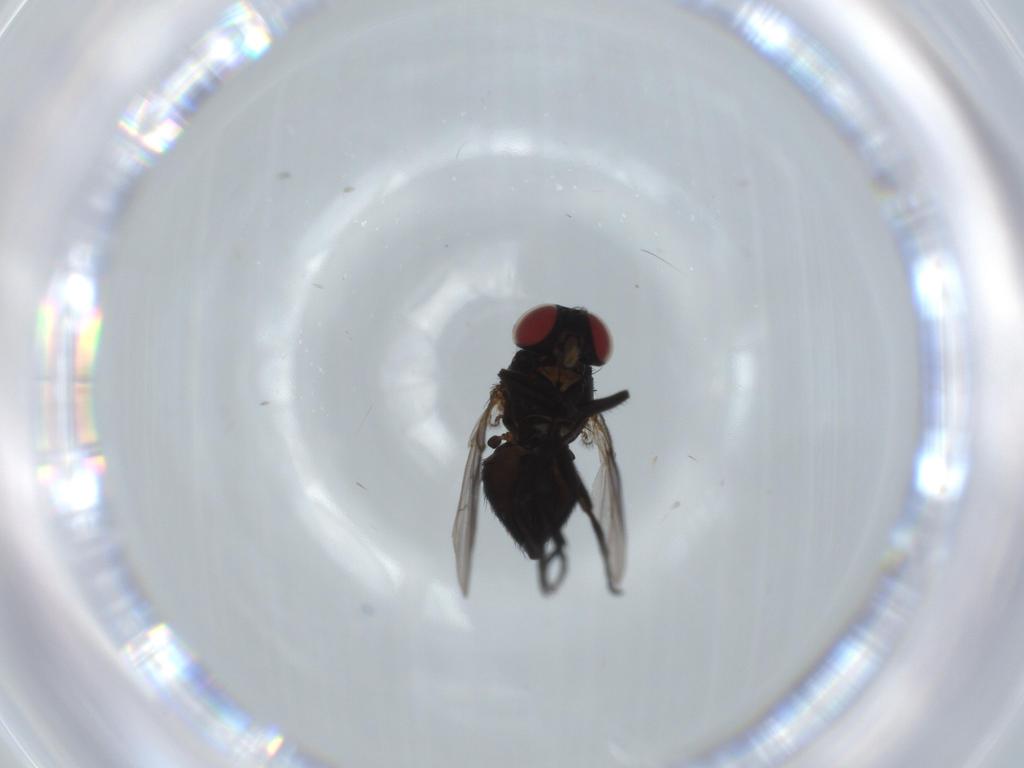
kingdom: Animalia
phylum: Arthropoda
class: Insecta
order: Diptera
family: Agromyzidae
